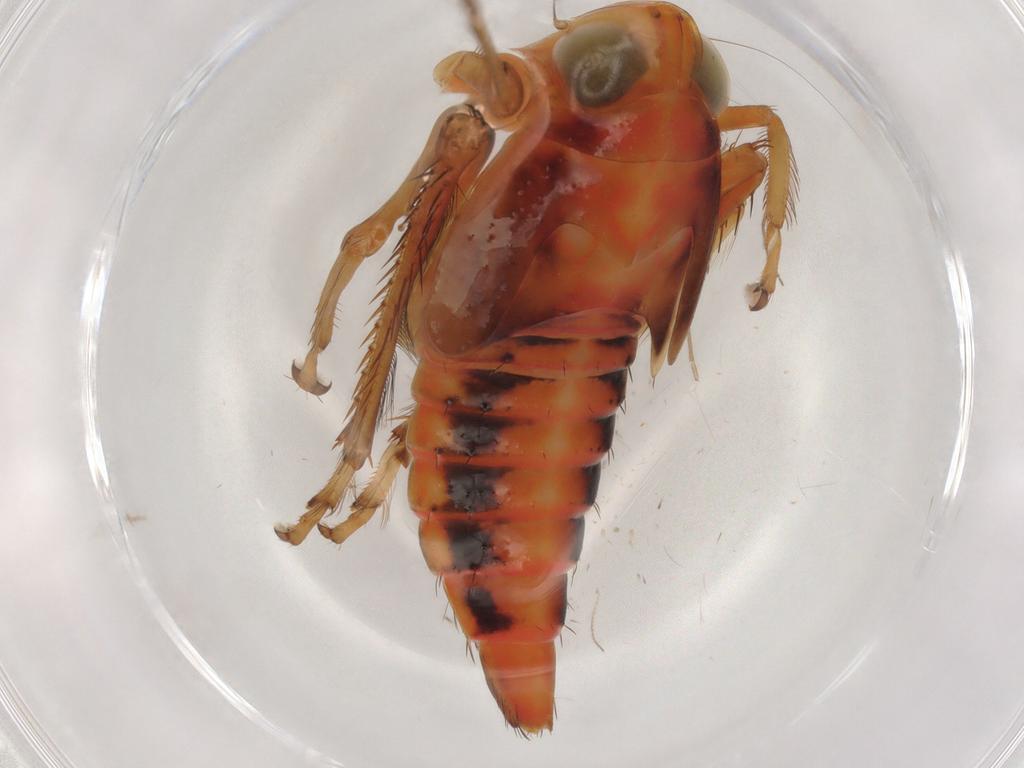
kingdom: Animalia
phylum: Arthropoda
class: Insecta
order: Hemiptera
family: Cicadellidae
